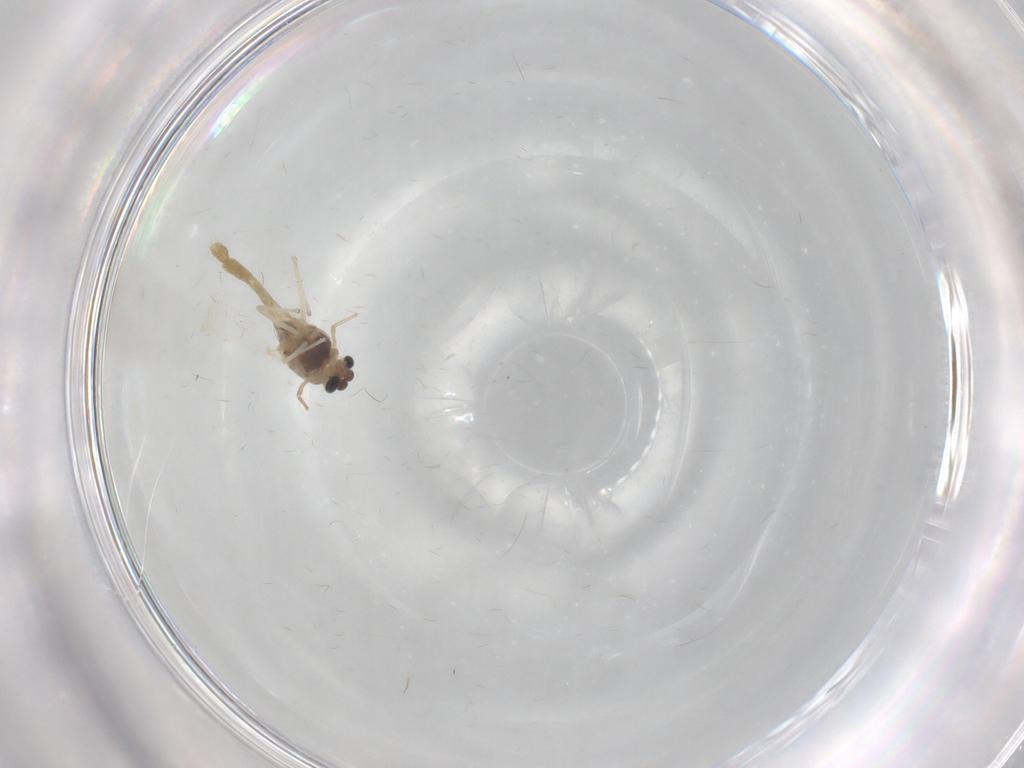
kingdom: Animalia
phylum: Arthropoda
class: Insecta
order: Diptera
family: Chironomidae
